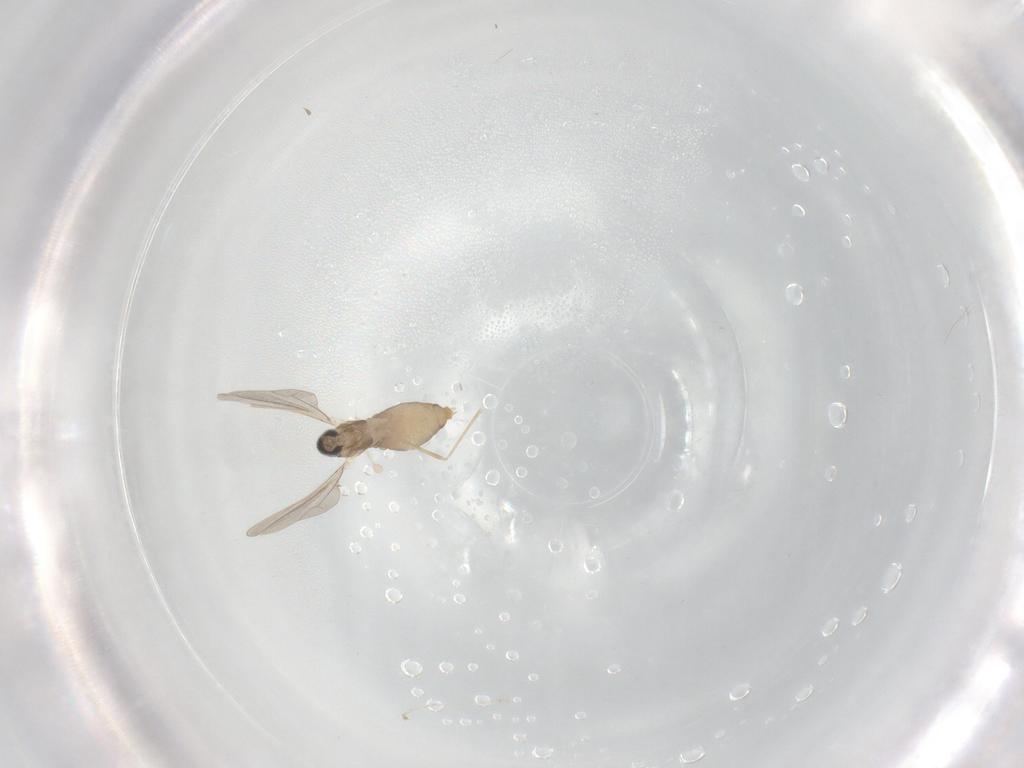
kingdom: Animalia
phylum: Arthropoda
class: Insecta
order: Diptera
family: Cecidomyiidae
